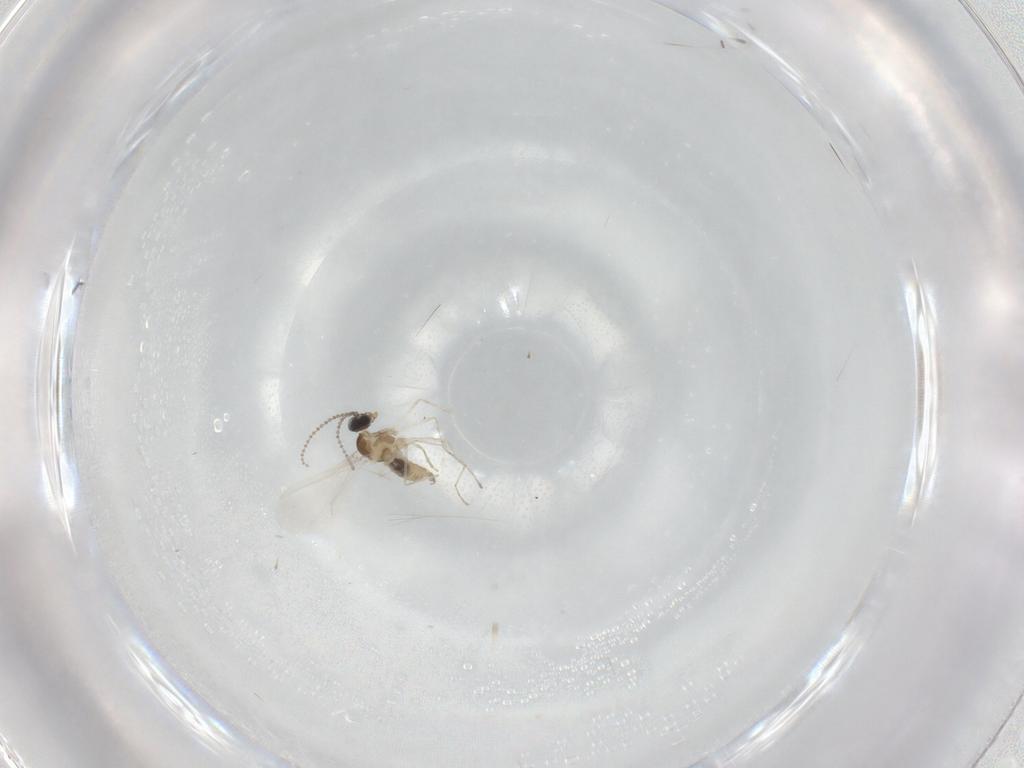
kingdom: Animalia
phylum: Arthropoda
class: Insecta
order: Diptera
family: Cecidomyiidae
